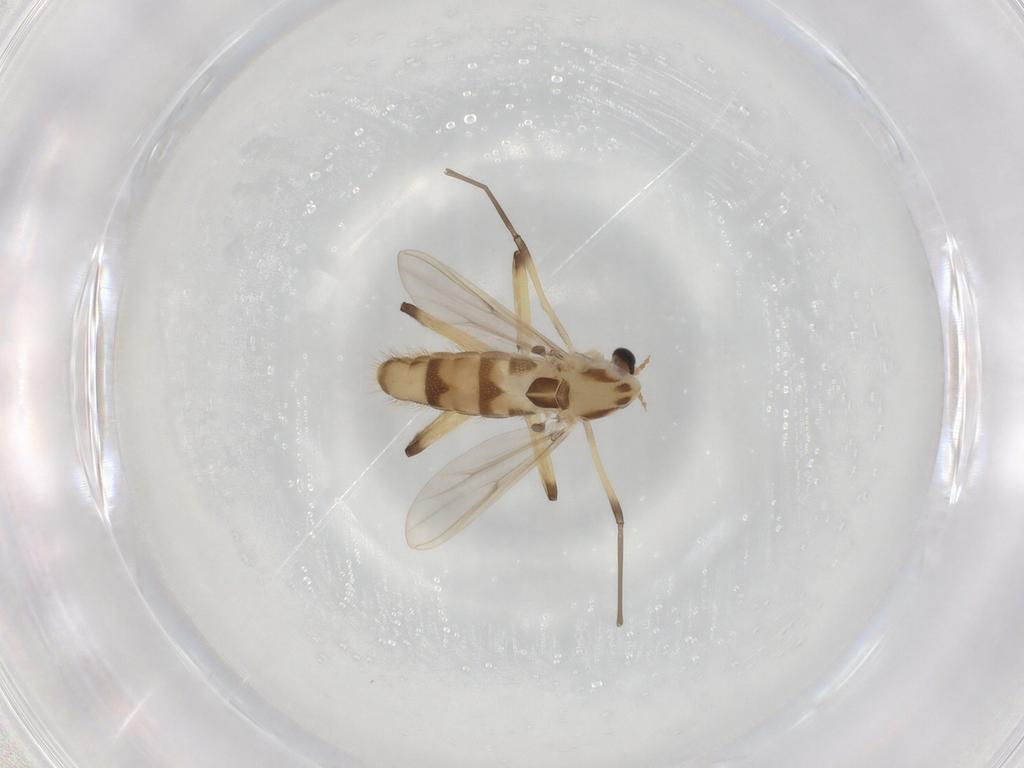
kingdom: Animalia
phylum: Arthropoda
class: Insecta
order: Diptera
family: Chironomidae
